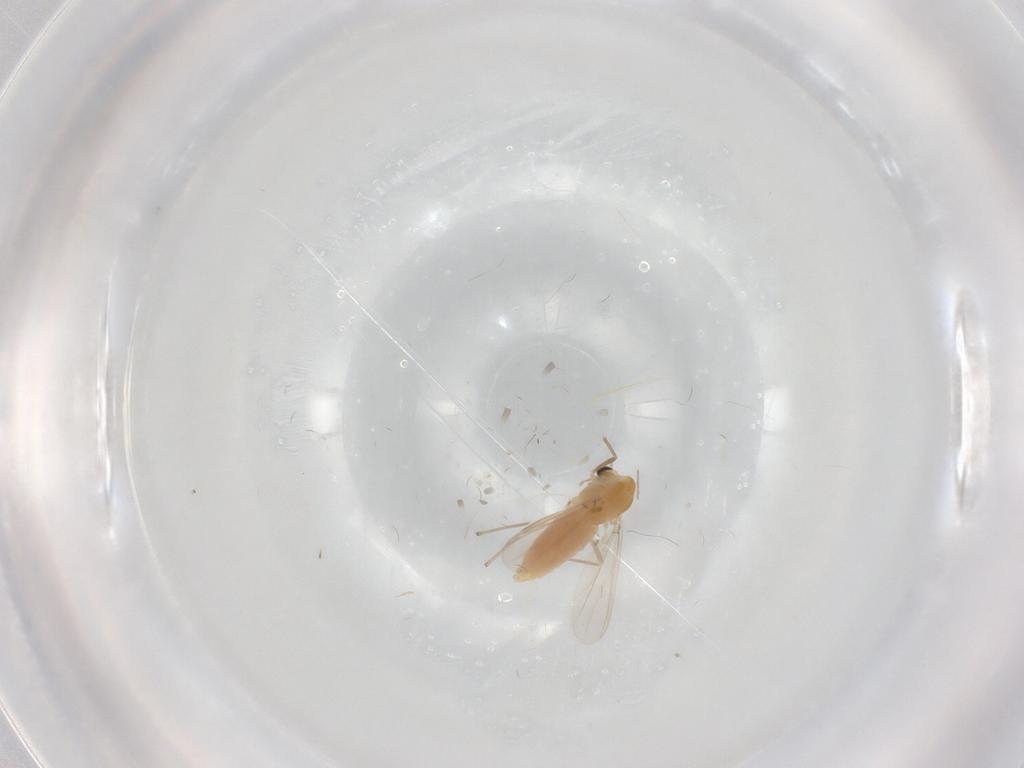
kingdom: Animalia
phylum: Arthropoda
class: Insecta
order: Diptera
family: Chironomidae
